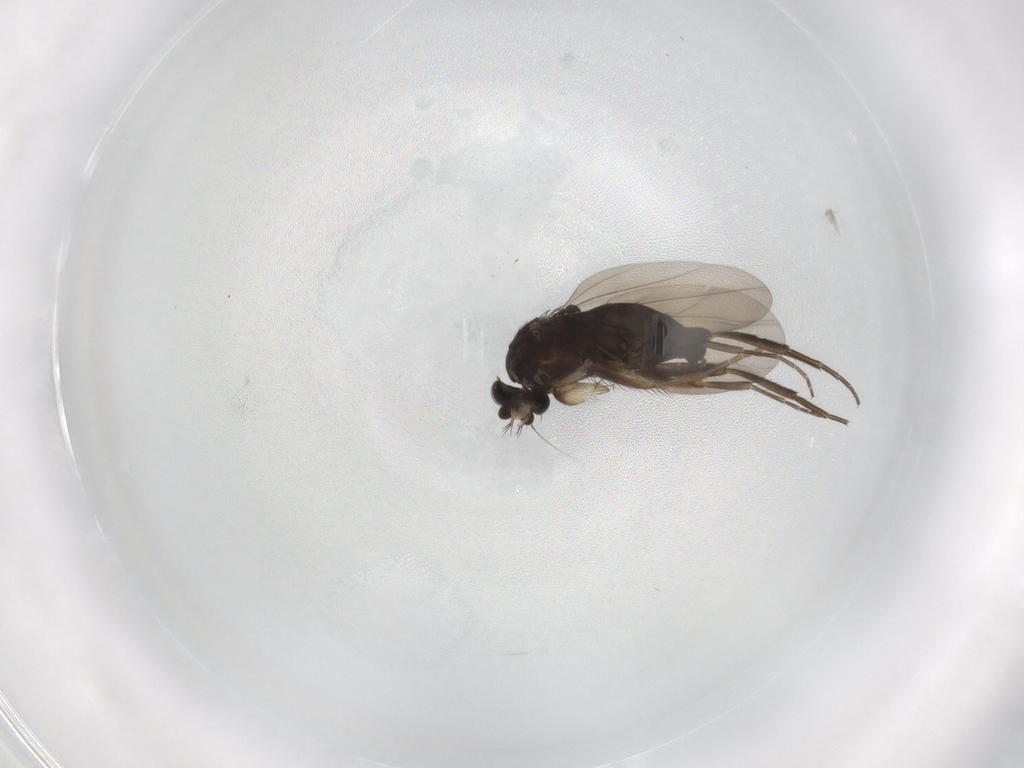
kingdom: Animalia
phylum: Arthropoda
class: Insecta
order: Diptera
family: Phoridae
